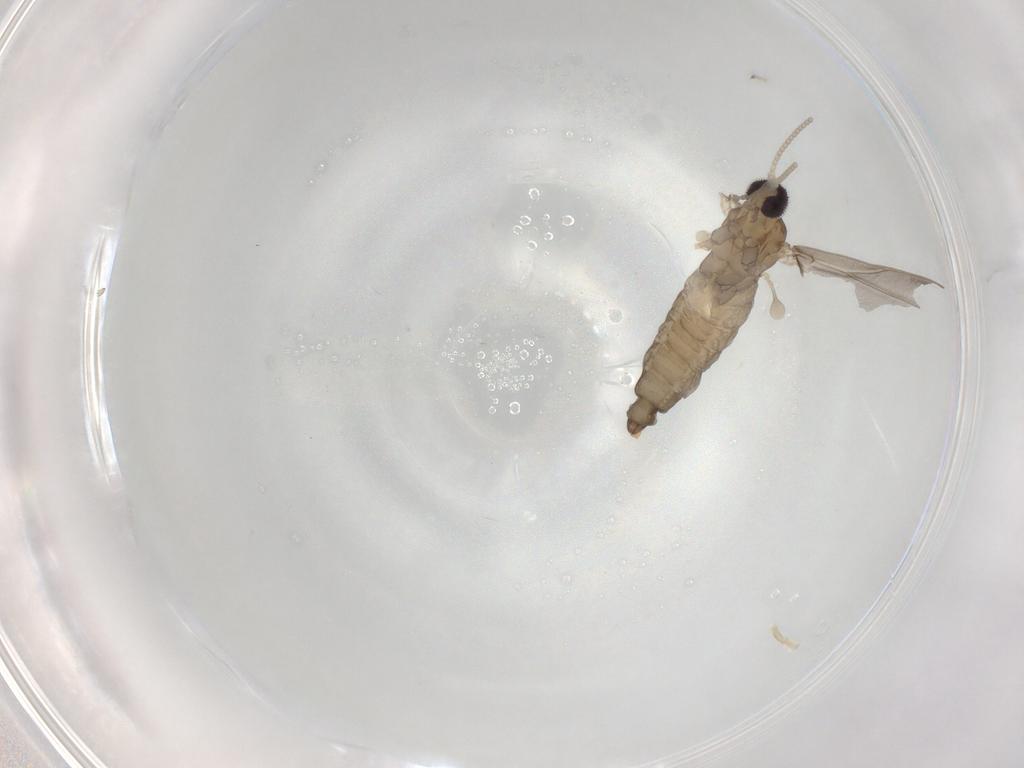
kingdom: Animalia
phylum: Arthropoda
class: Insecta
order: Diptera
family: Cecidomyiidae
